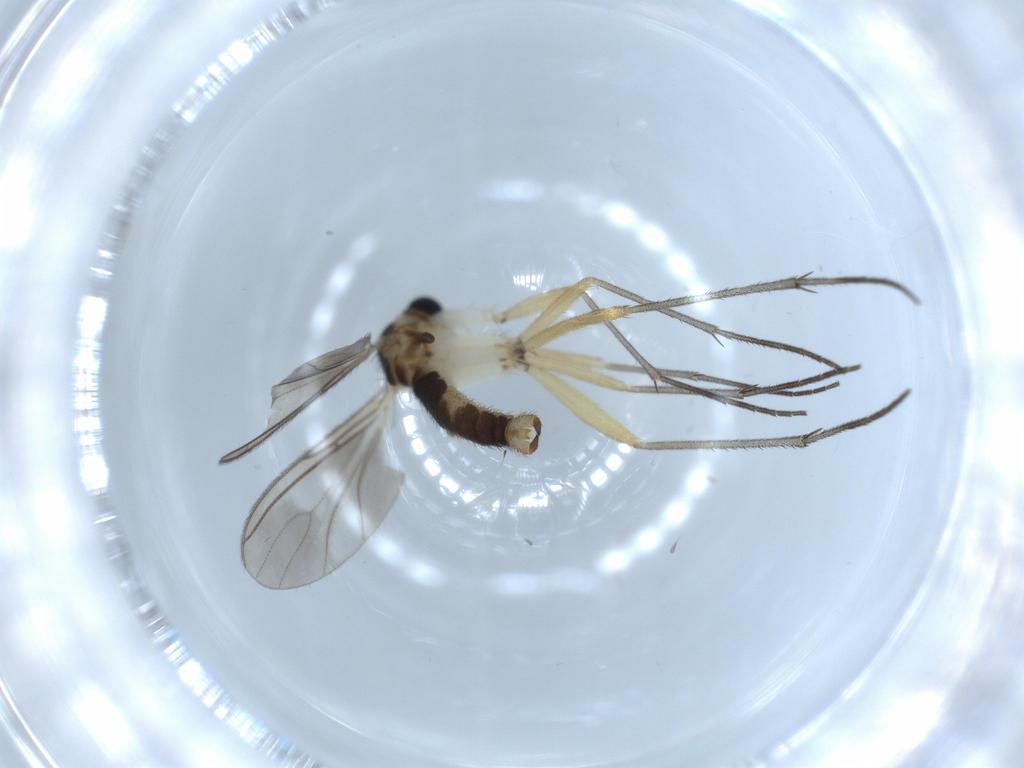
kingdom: Animalia
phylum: Arthropoda
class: Insecta
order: Diptera
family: Sciaridae
